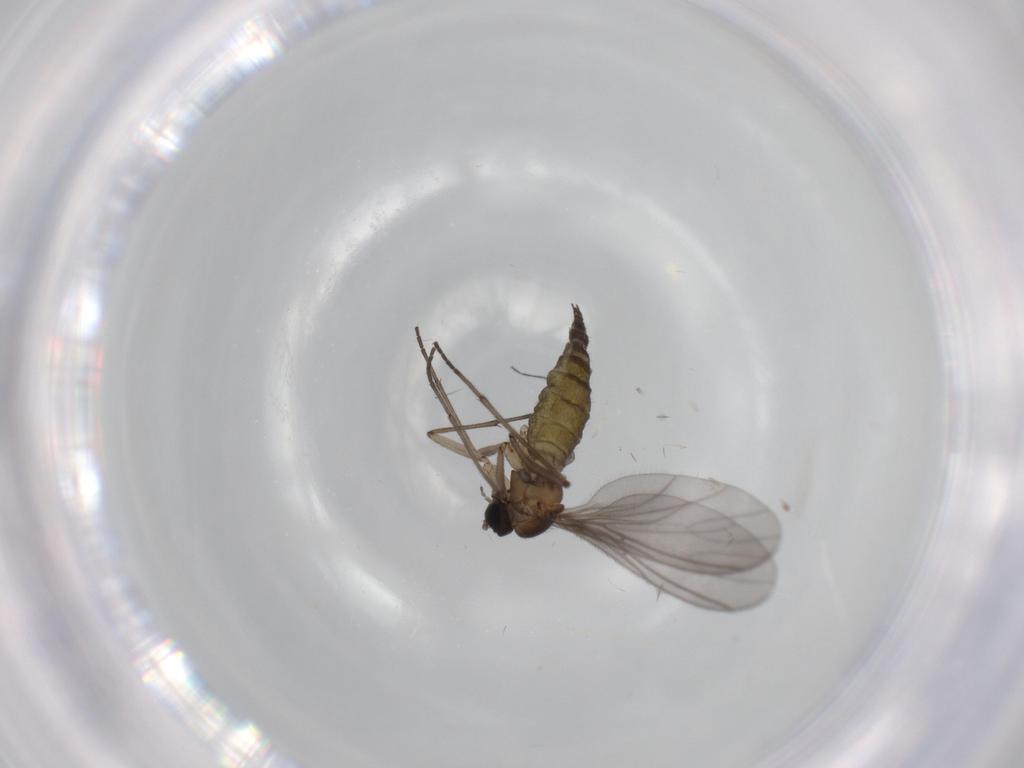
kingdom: Animalia
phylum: Arthropoda
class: Insecta
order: Diptera
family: Sciaridae
